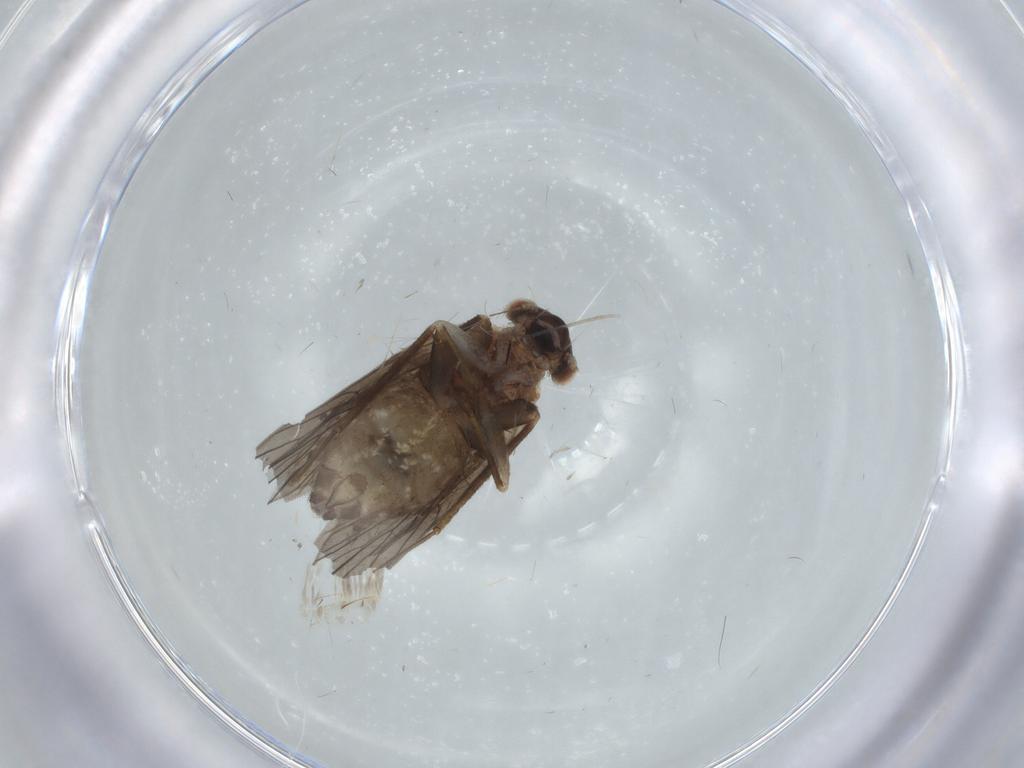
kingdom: Animalia
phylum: Arthropoda
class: Insecta
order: Psocodea
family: Lepidopsocidae
